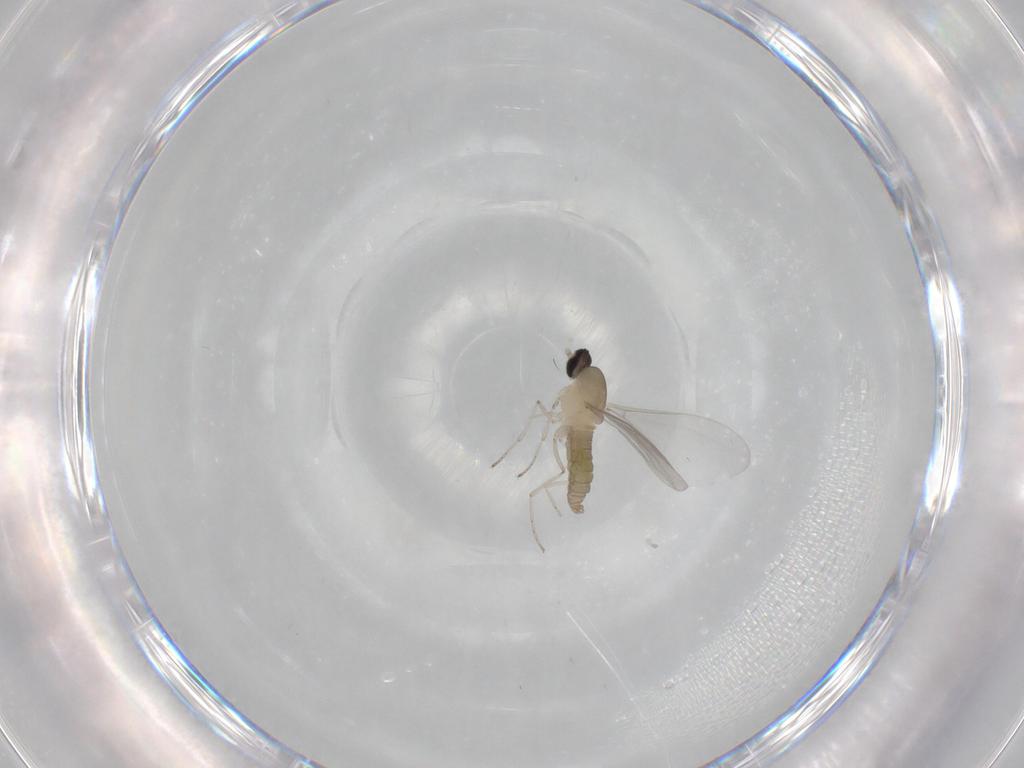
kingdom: Animalia
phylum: Arthropoda
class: Insecta
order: Diptera
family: Cecidomyiidae
